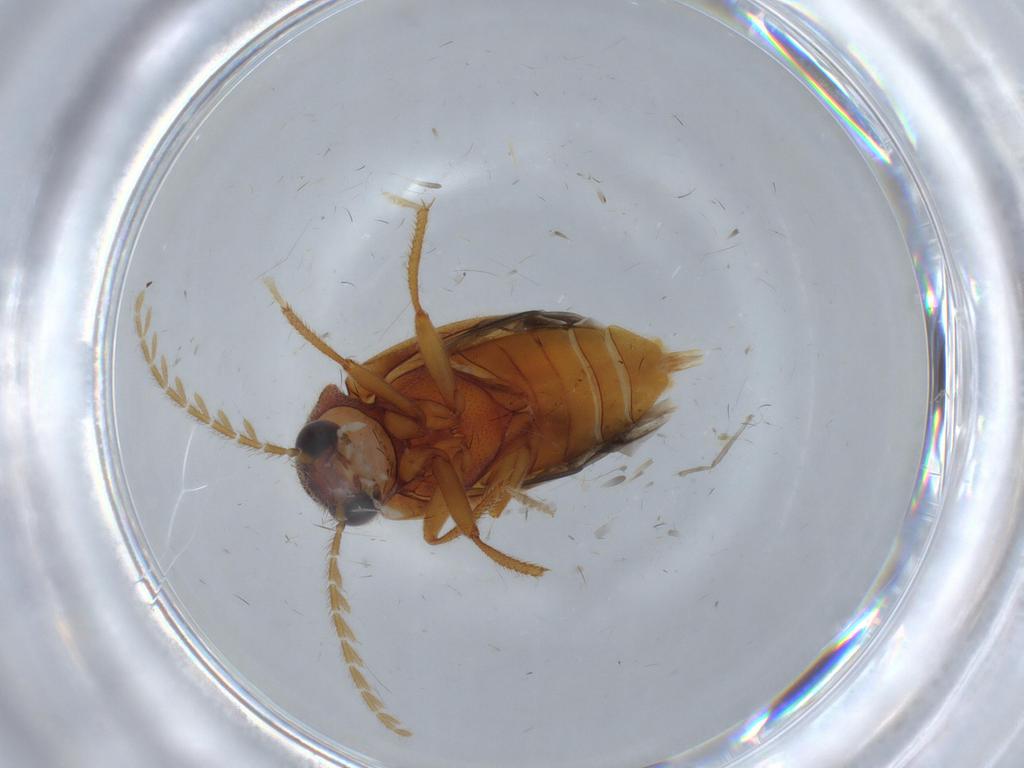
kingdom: Animalia
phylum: Arthropoda
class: Insecta
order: Coleoptera
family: Ptilodactylidae
